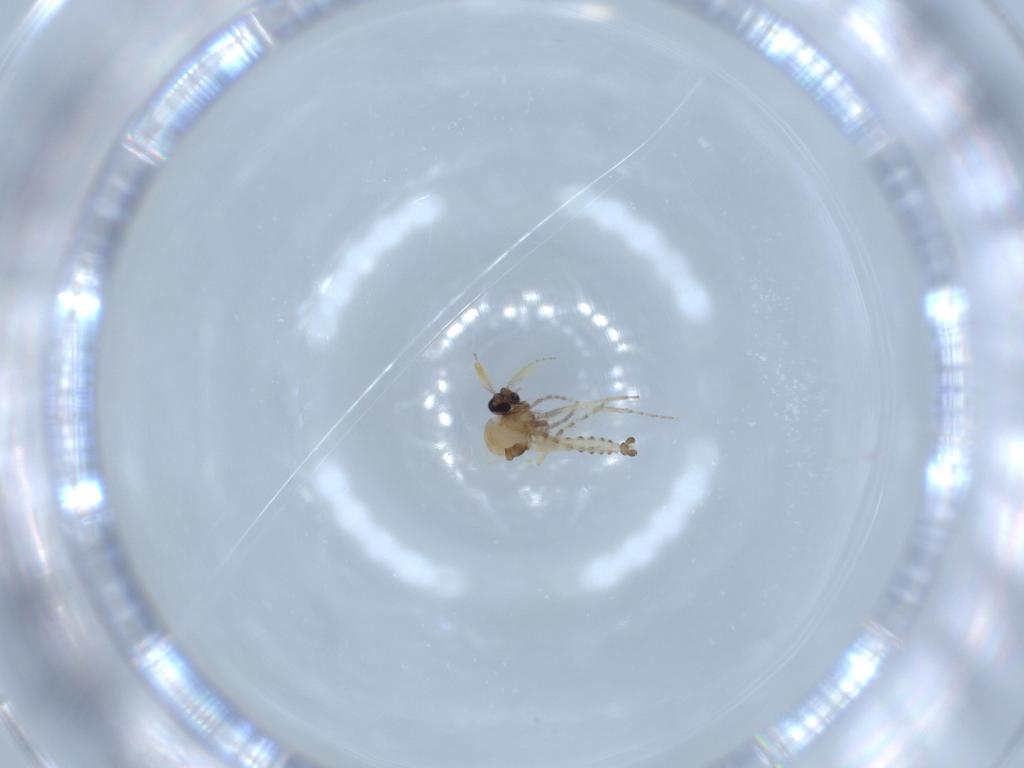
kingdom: Animalia
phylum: Arthropoda
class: Insecta
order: Diptera
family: Ceratopogonidae
